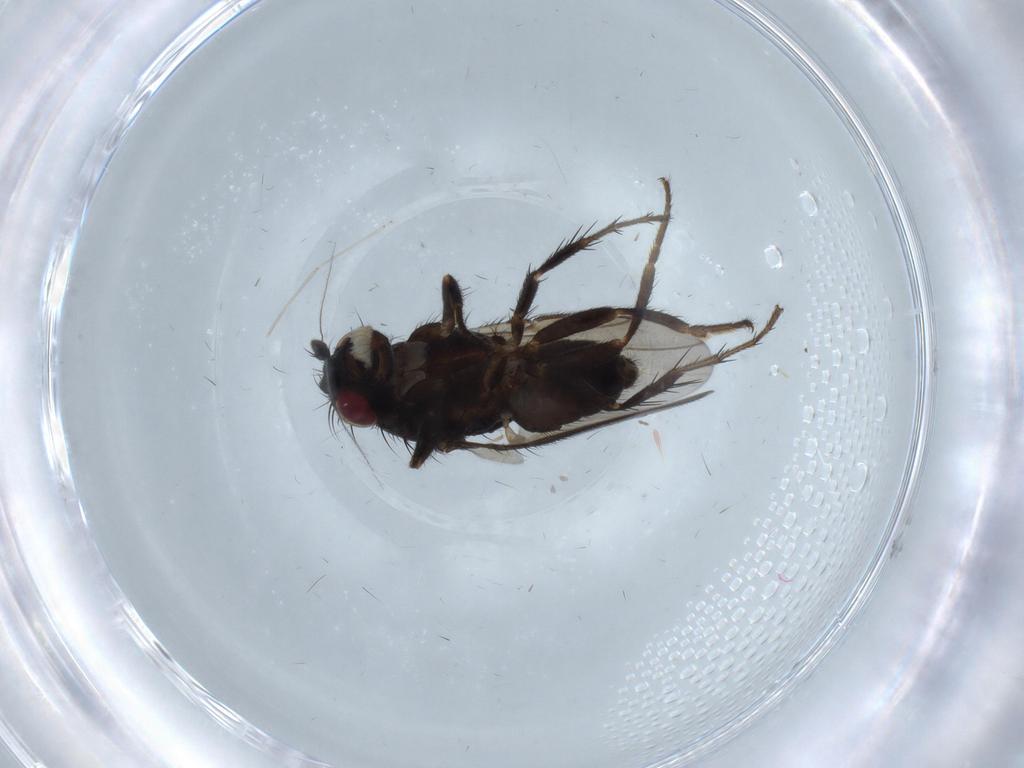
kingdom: Animalia
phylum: Arthropoda
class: Insecta
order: Diptera
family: Sphaeroceridae
